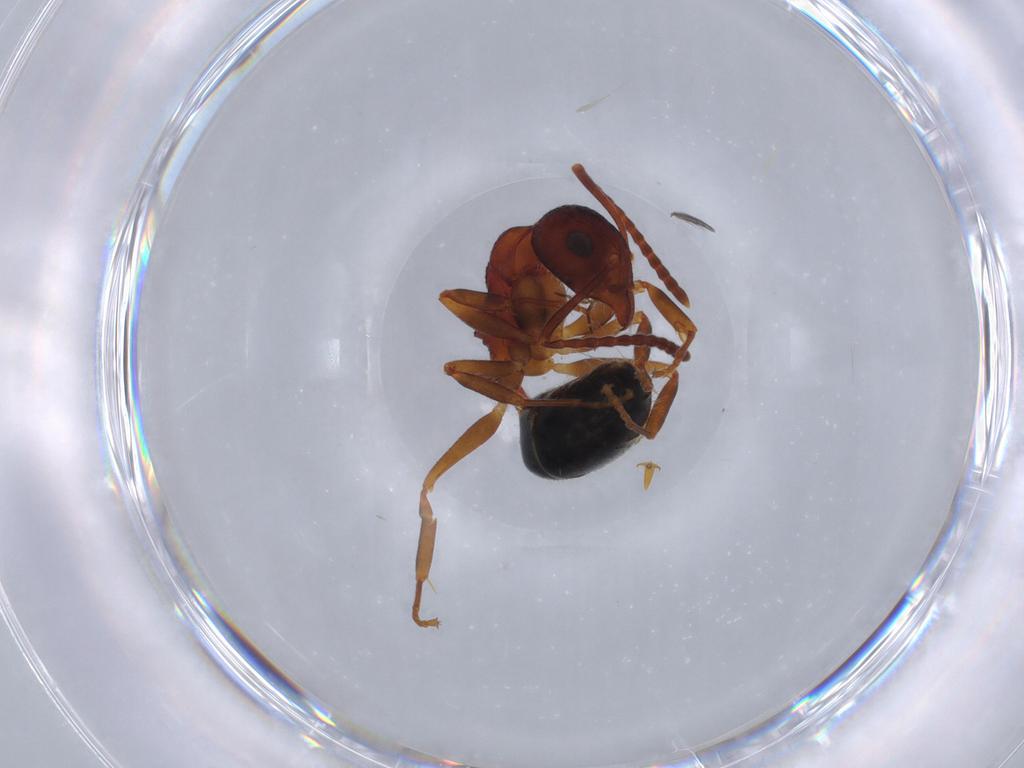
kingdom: Animalia
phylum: Arthropoda
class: Insecta
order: Hymenoptera
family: Formicidae
